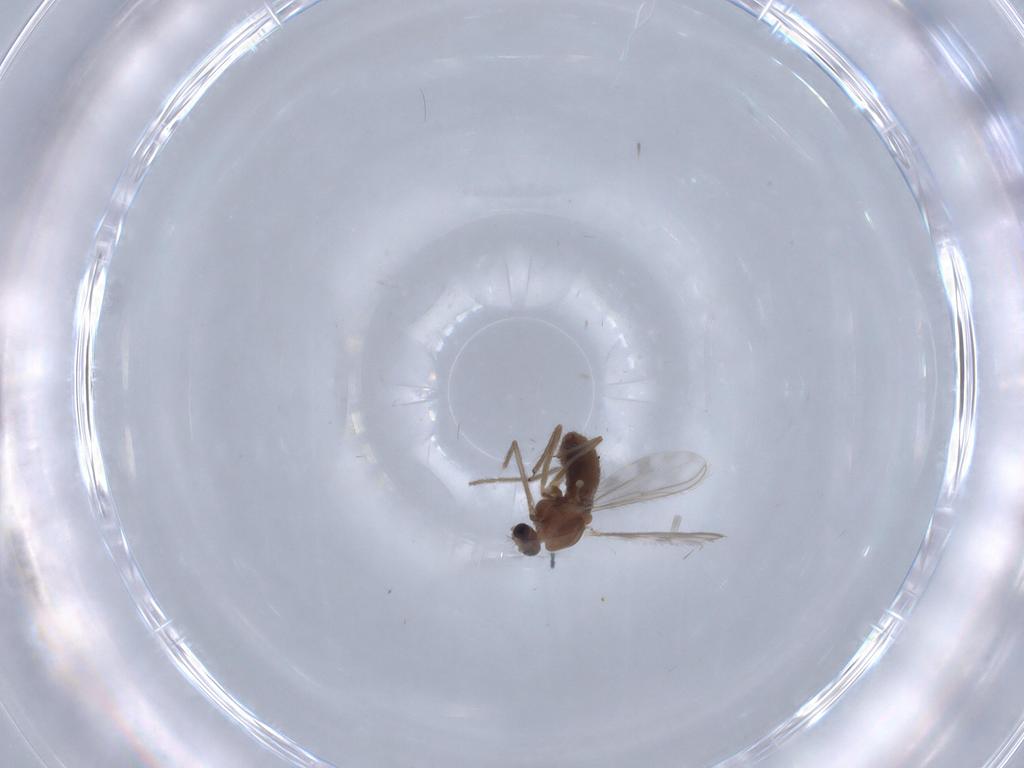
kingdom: Animalia
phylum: Arthropoda
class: Insecta
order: Diptera
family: Chironomidae
